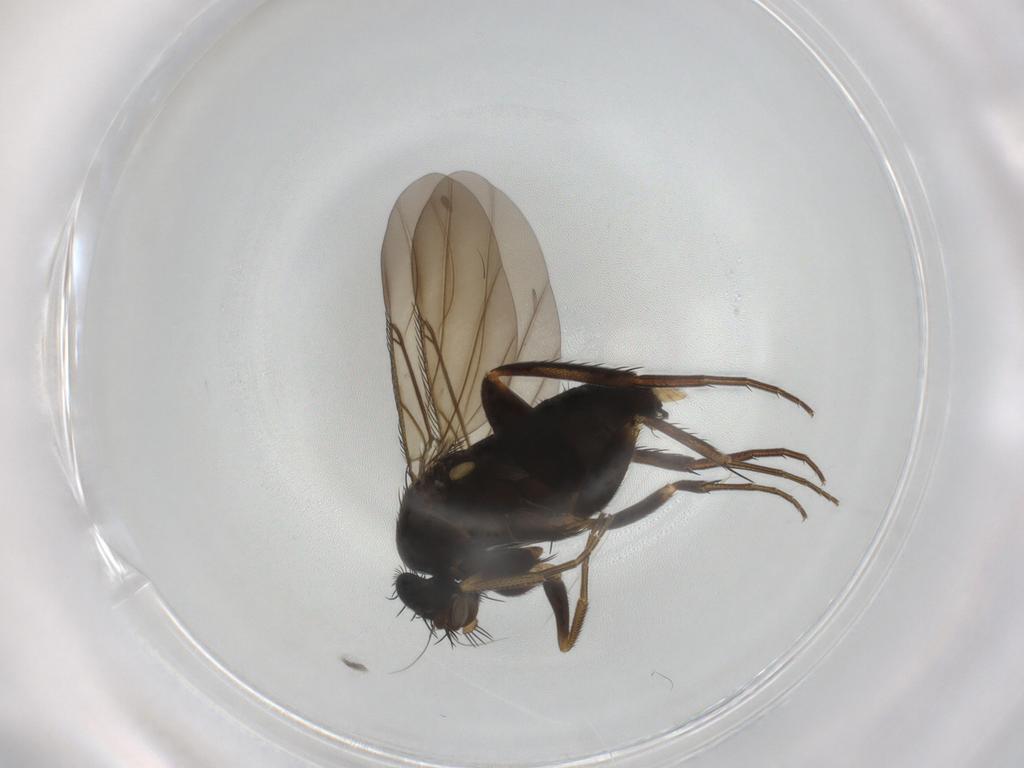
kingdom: Animalia
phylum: Arthropoda
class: Insecta
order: Diptera
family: Phoridae
